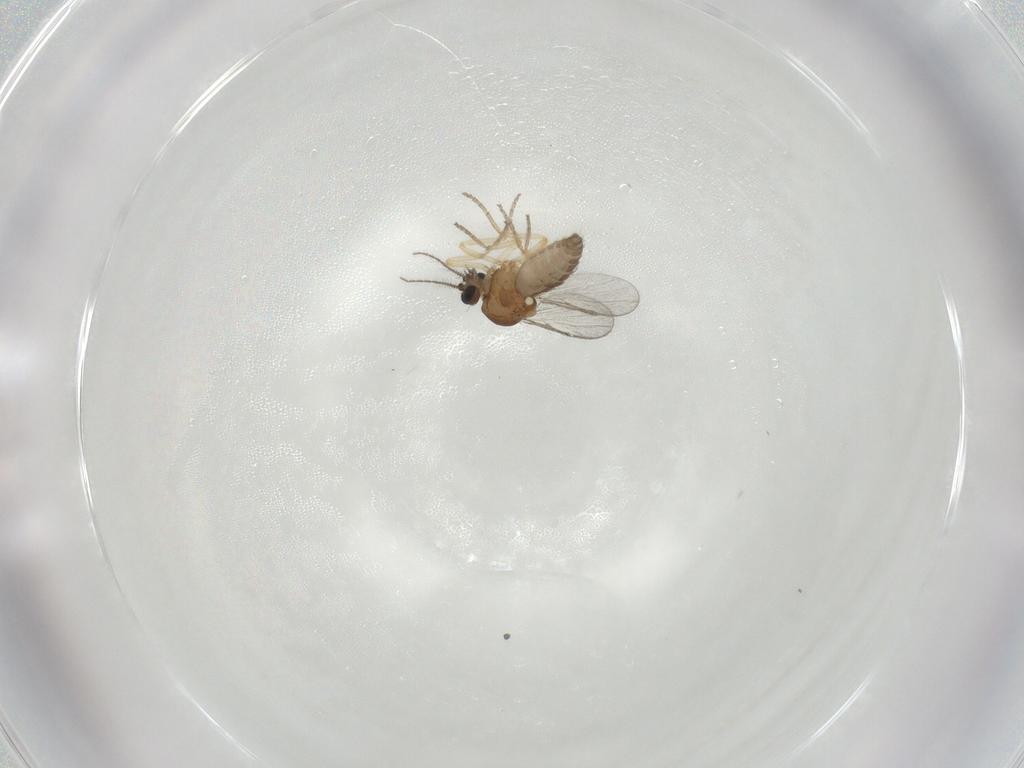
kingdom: Animalia
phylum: Arthropoda
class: Insecta
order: Diptera
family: Ceratopogonidae
